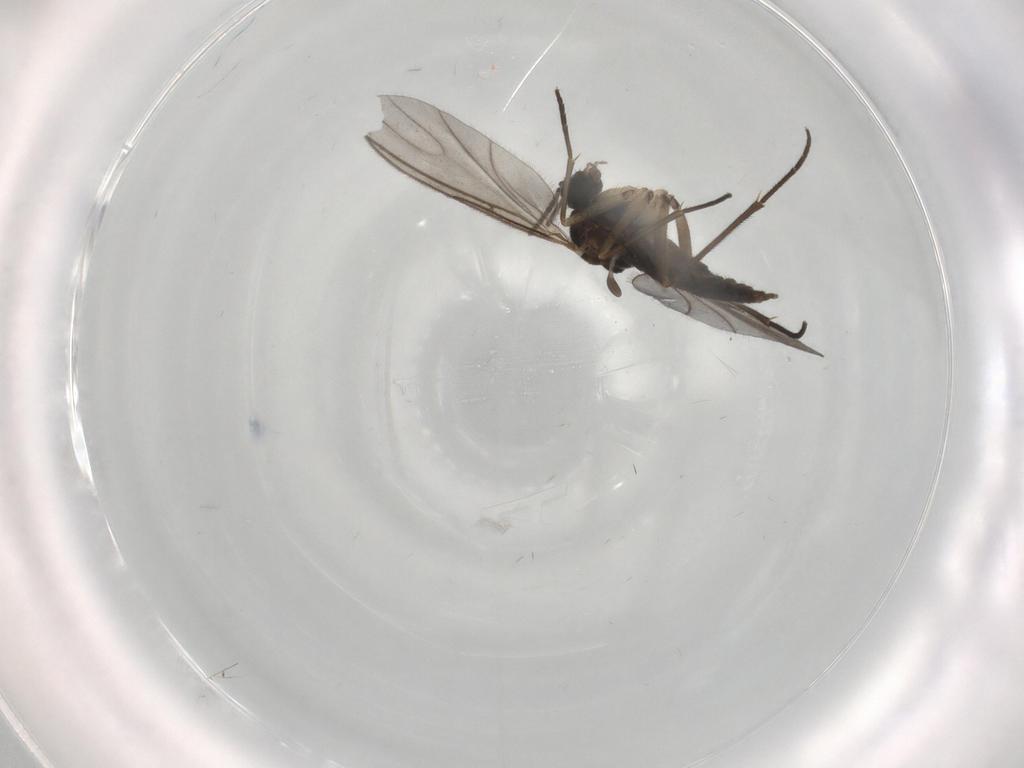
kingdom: Animalia
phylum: Arthropoda
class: Insecta
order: Diptera
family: Sciaridae
